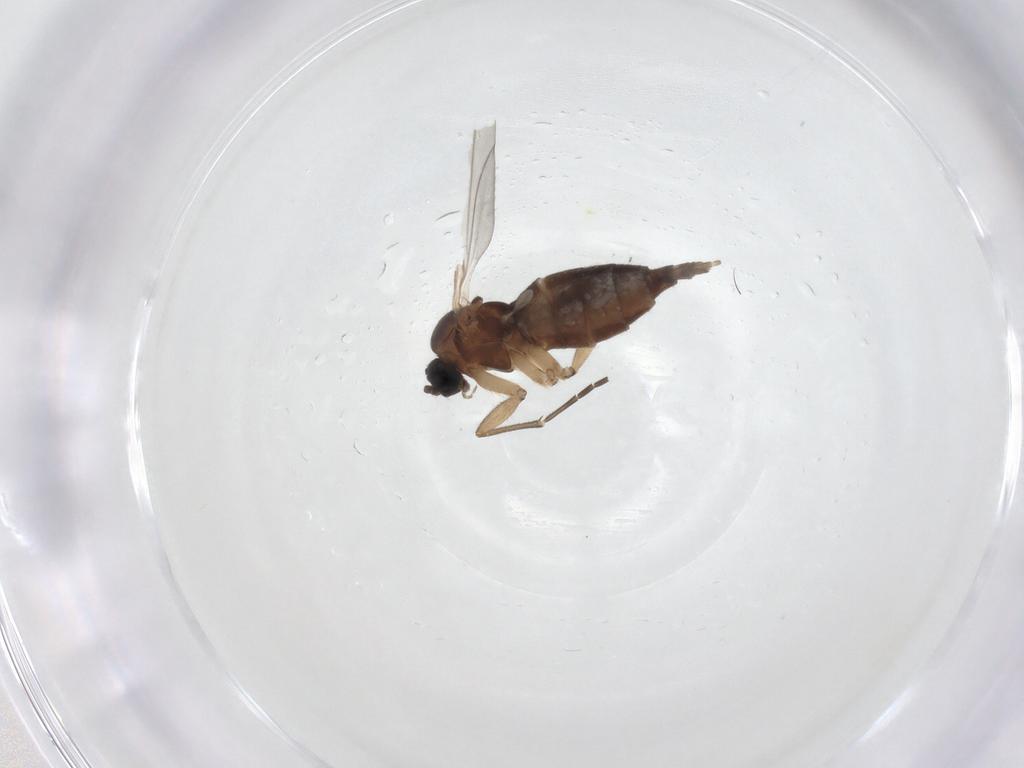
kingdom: Animalia
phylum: Arthropoda
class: Insecta
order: Diptera
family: Sciaridae
